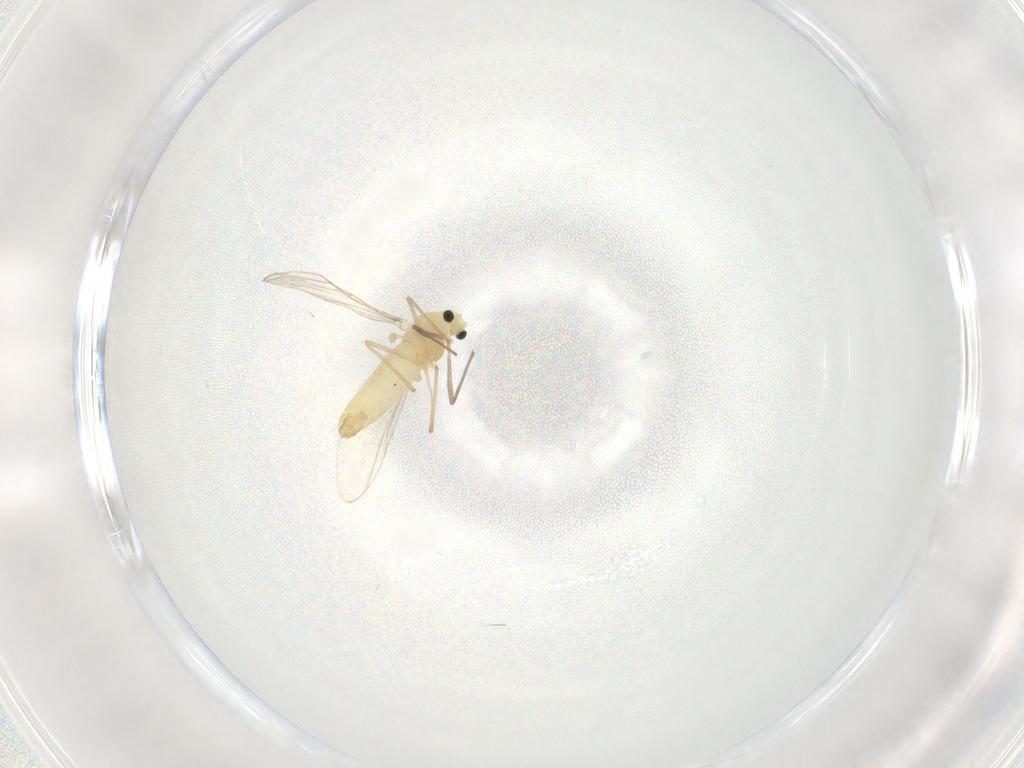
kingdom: Animalia
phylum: Arthropoda
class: Insecta
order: Diptera
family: Chironomidae
